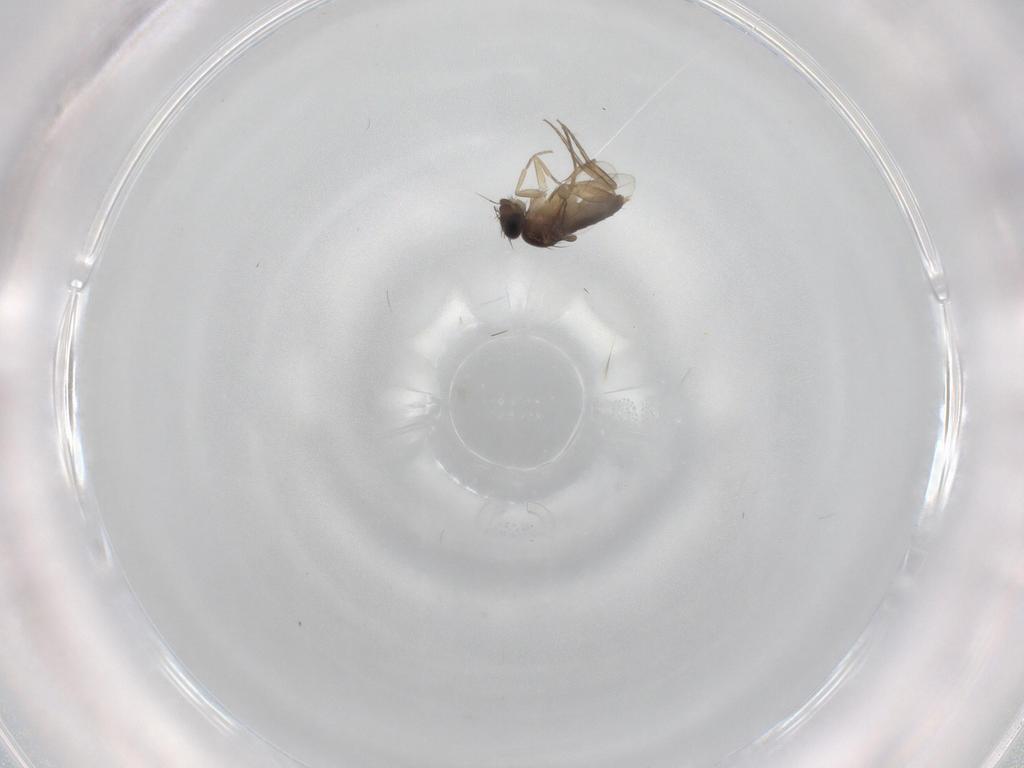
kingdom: Animalia
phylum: Arthropoda
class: Insecta
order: Diptera
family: Phoridae
